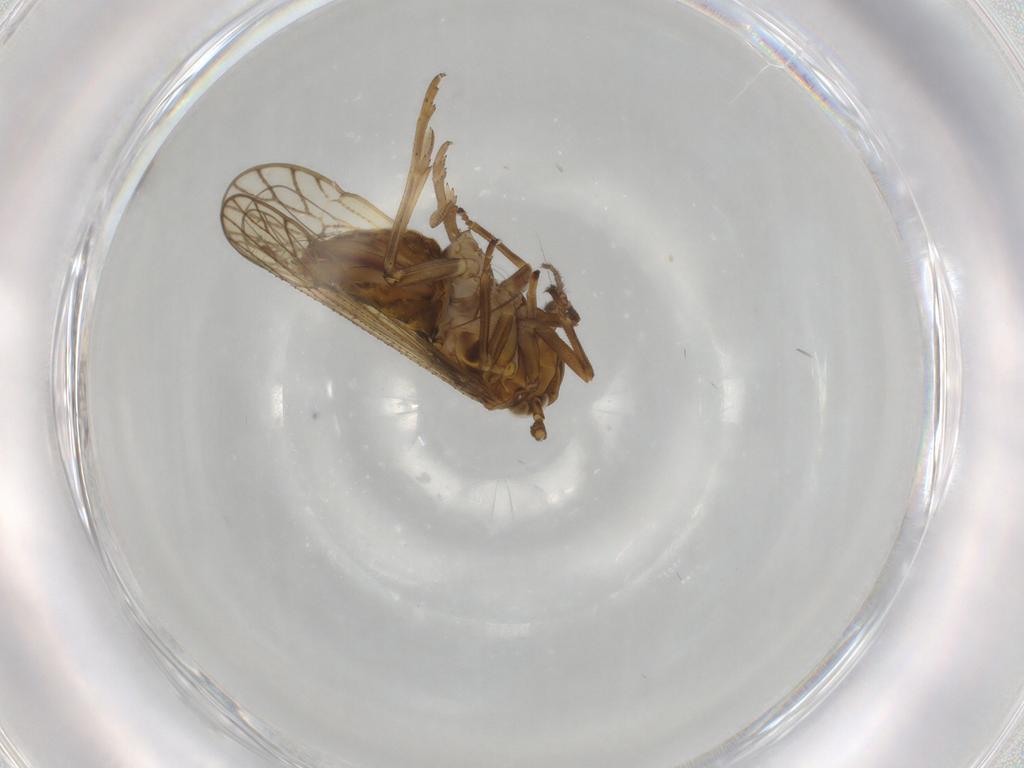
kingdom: Animalia
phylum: Arthropoda
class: Insecta
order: Hemiptera
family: Delphacidae
